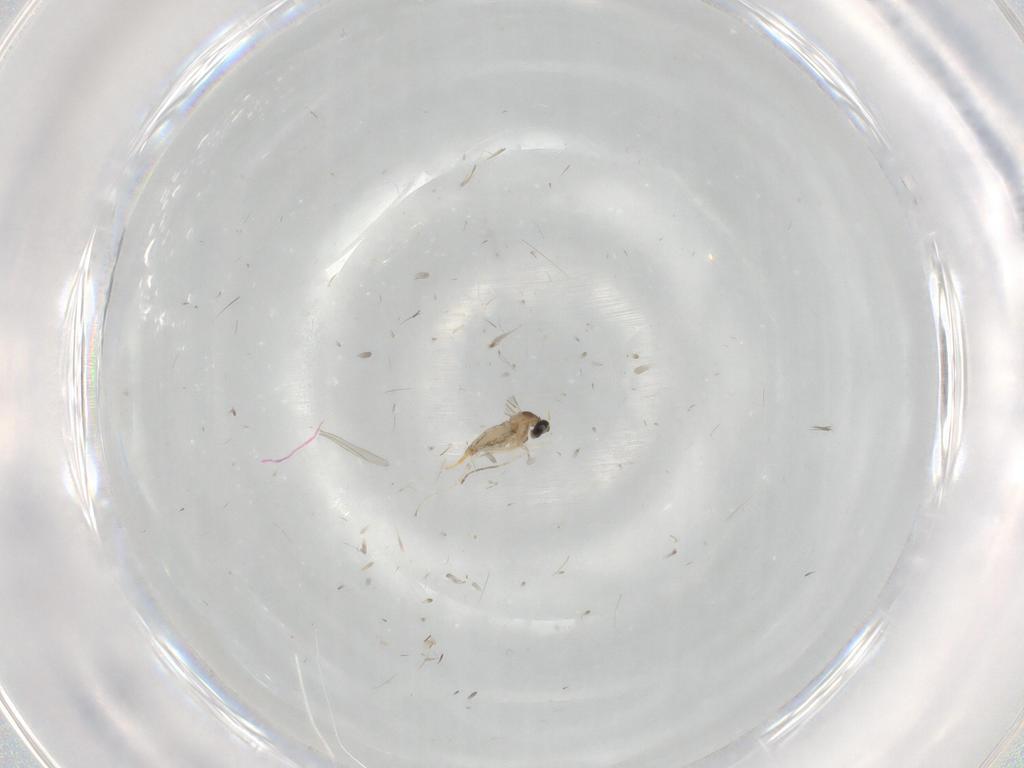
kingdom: Animalia
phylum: Arthropoda
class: Insecta
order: Diptera
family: Cecidomyiidae
